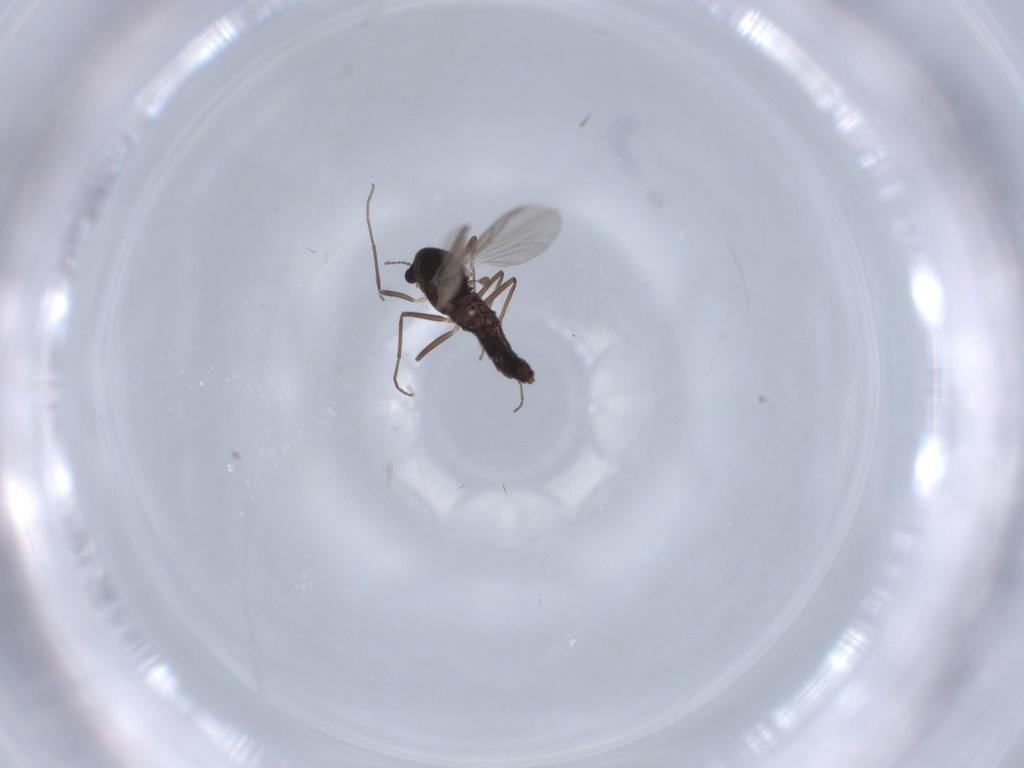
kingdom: Animalia
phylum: Arthropoda
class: Insecta
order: Diptera
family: Chironomidae
